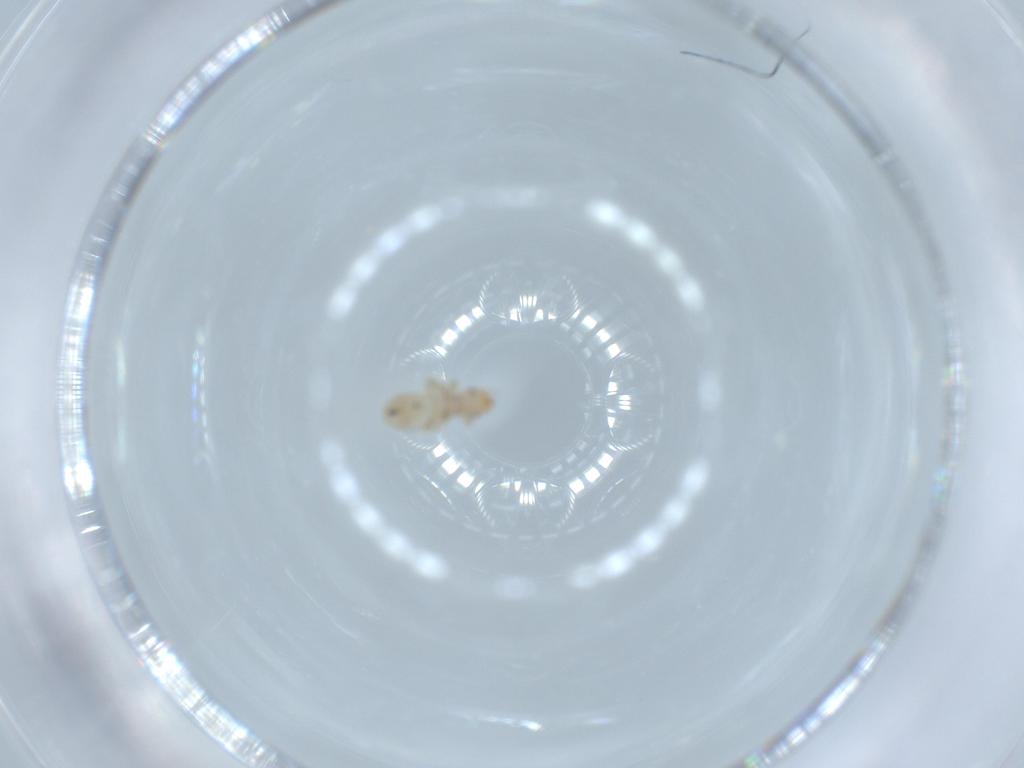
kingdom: Animalia
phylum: Arthropoda
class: Insecta
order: Psocodea
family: Liposcelididae
